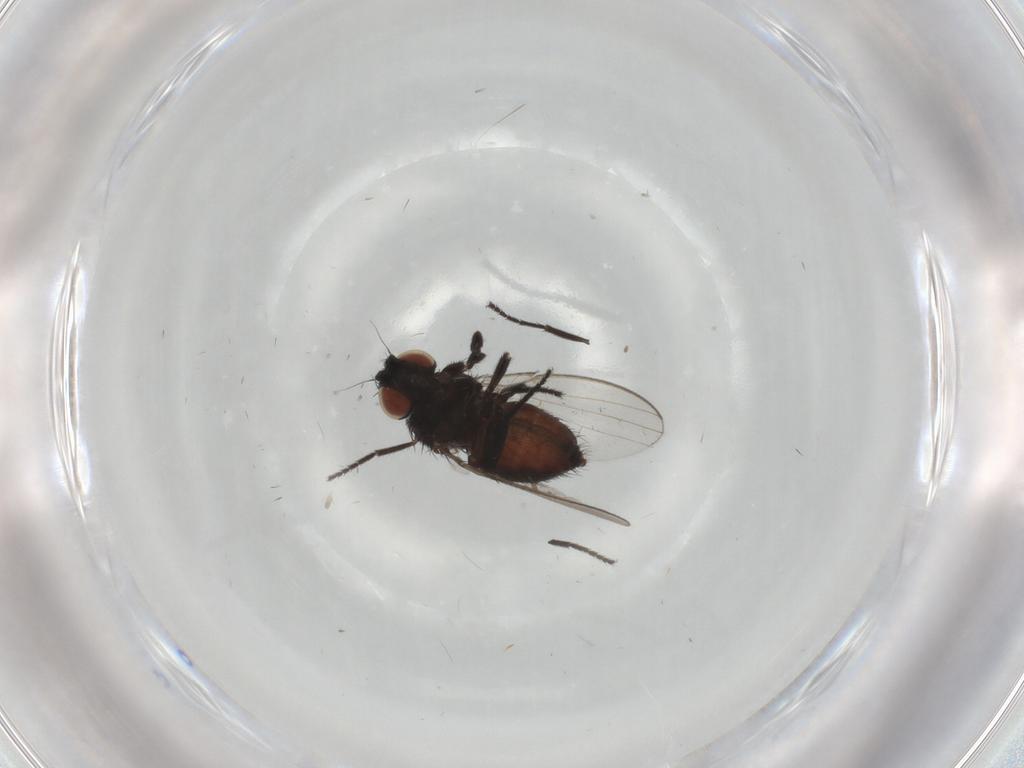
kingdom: Animalia
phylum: Arthropoda
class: Insecta
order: Diptera
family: Milichiidae
